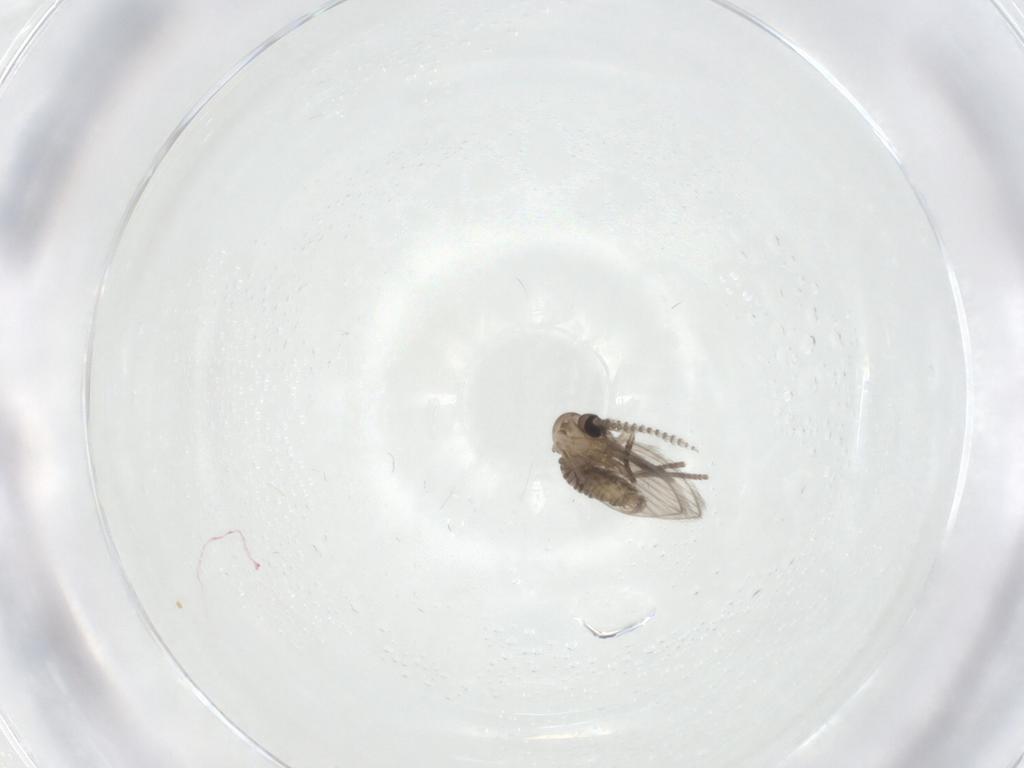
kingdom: Animalia
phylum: Arthropoda
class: Insecta
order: Diptera
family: Psychodidae
